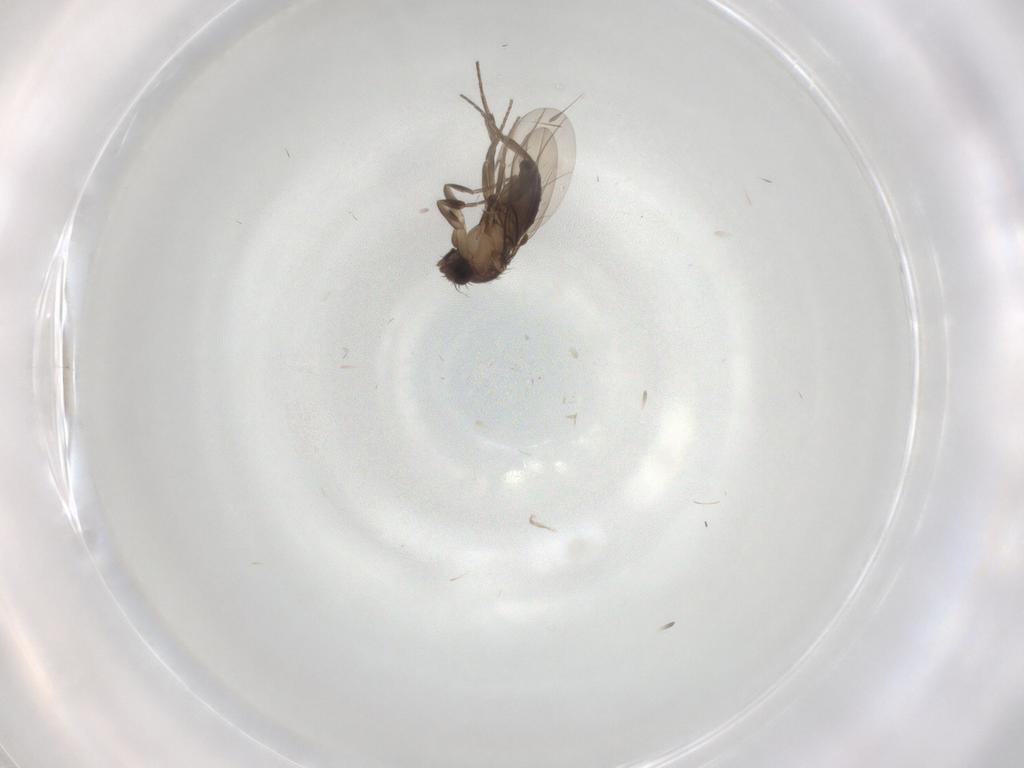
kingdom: Animalia
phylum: Arthropoda
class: Insecta
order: Diptera
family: Phoridae
